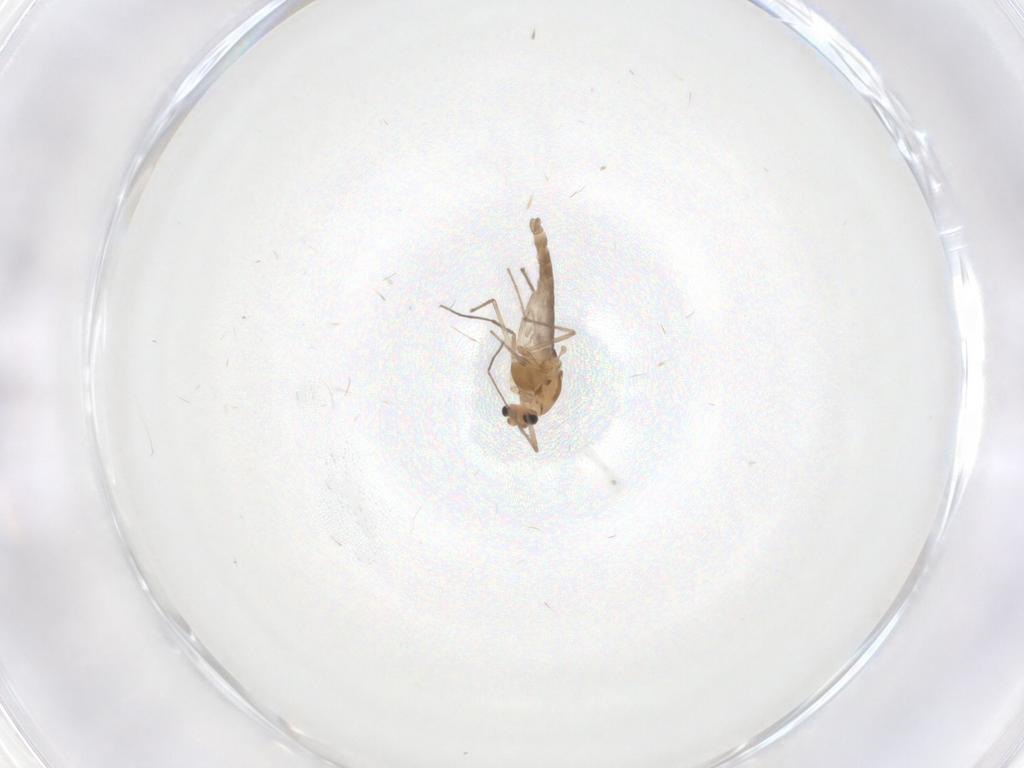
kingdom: Animalia
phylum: Arthropoda
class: Insecta
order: Diptera
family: Chironomidae
